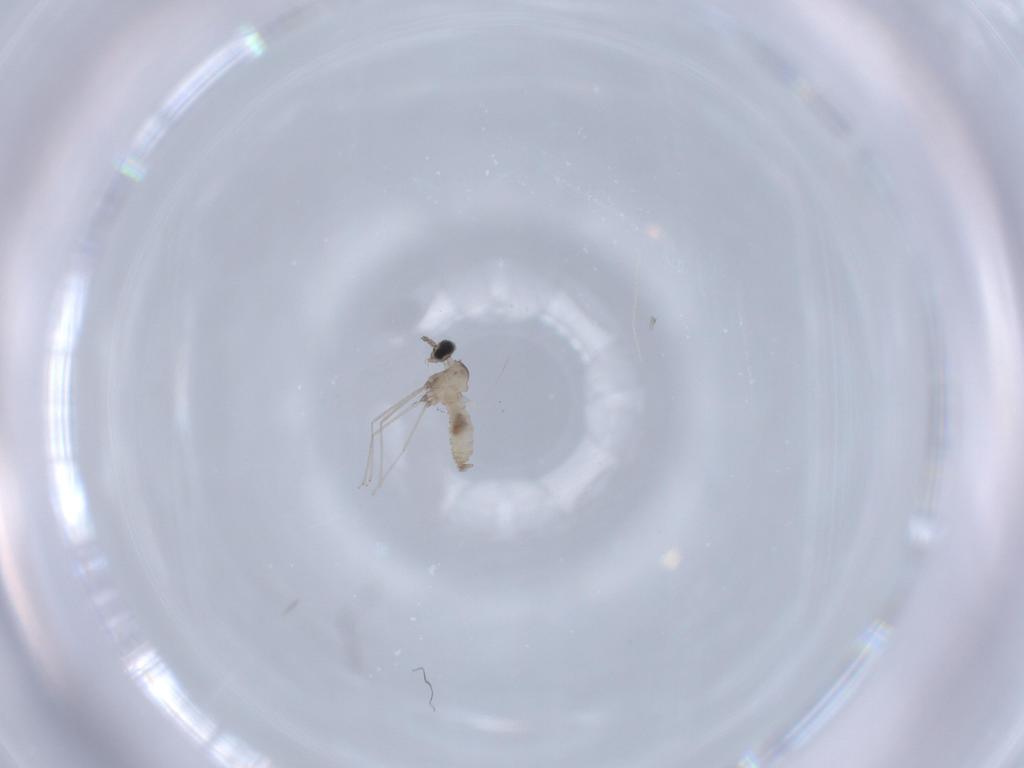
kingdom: Animalia
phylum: Arthropoda
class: Insecta
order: Diptera
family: Cecidomyiidae
